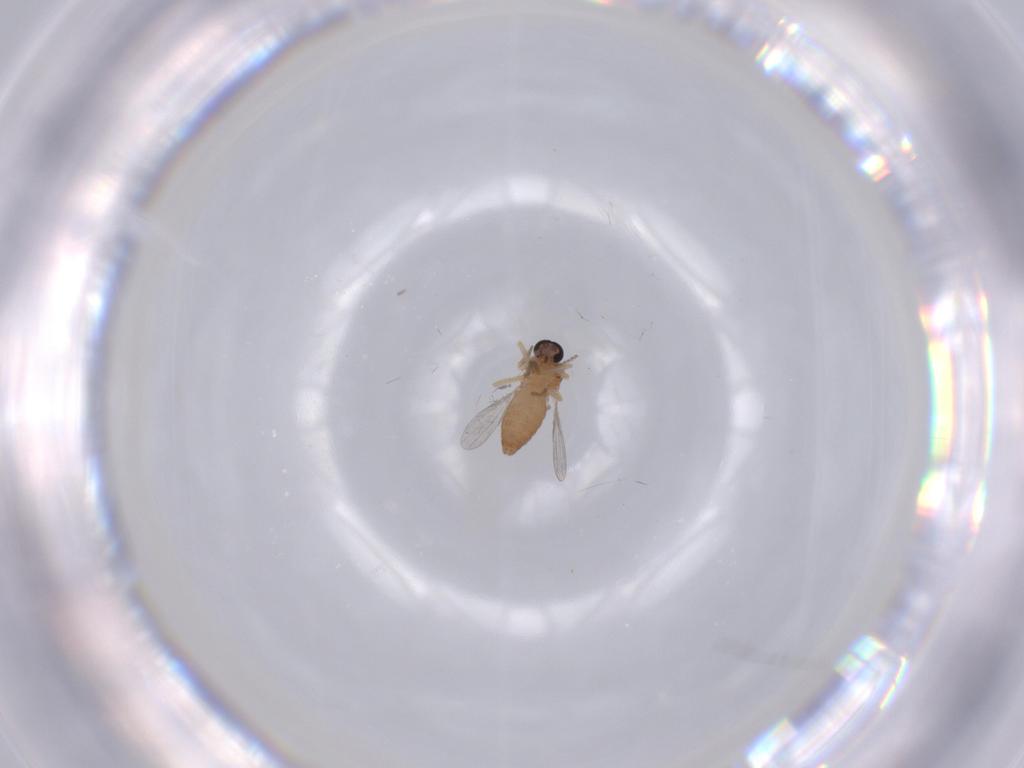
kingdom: Animalia
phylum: Arthropoda
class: Insecta
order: Diptera
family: Ceratopogonidae
